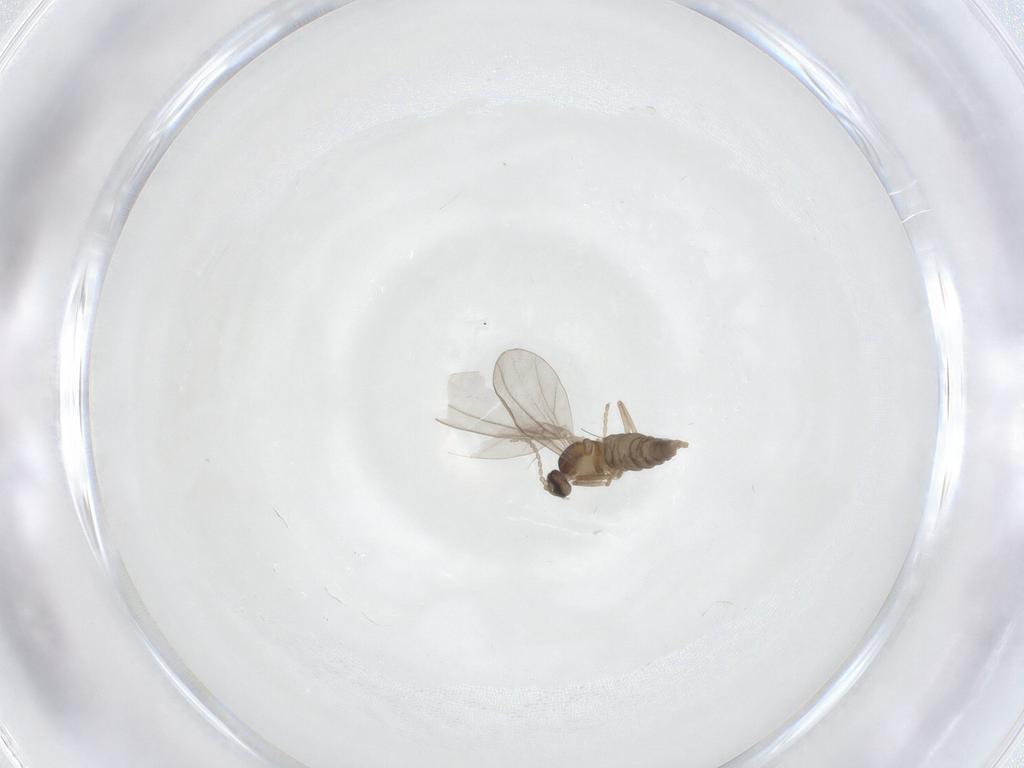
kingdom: Animalia
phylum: Arthropoda
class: Insecta
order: Diptera
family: Cecidomyiidae
